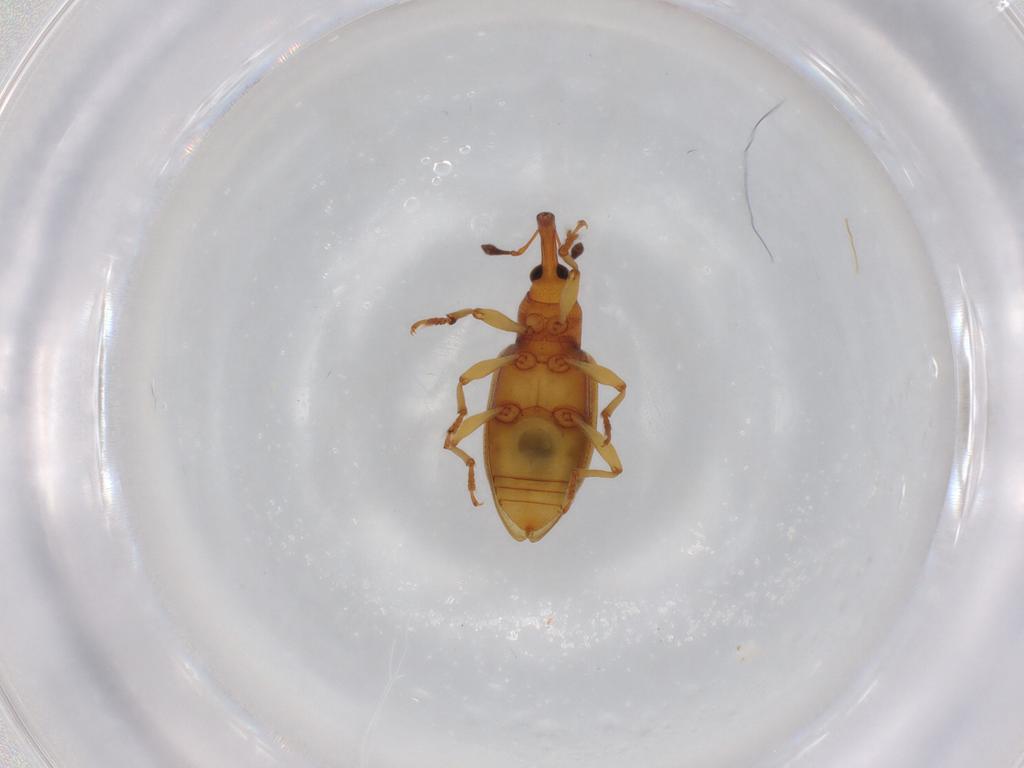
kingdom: Animalia
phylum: Arthropoda
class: Insecta
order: Coleoptera
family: Curculionidae
